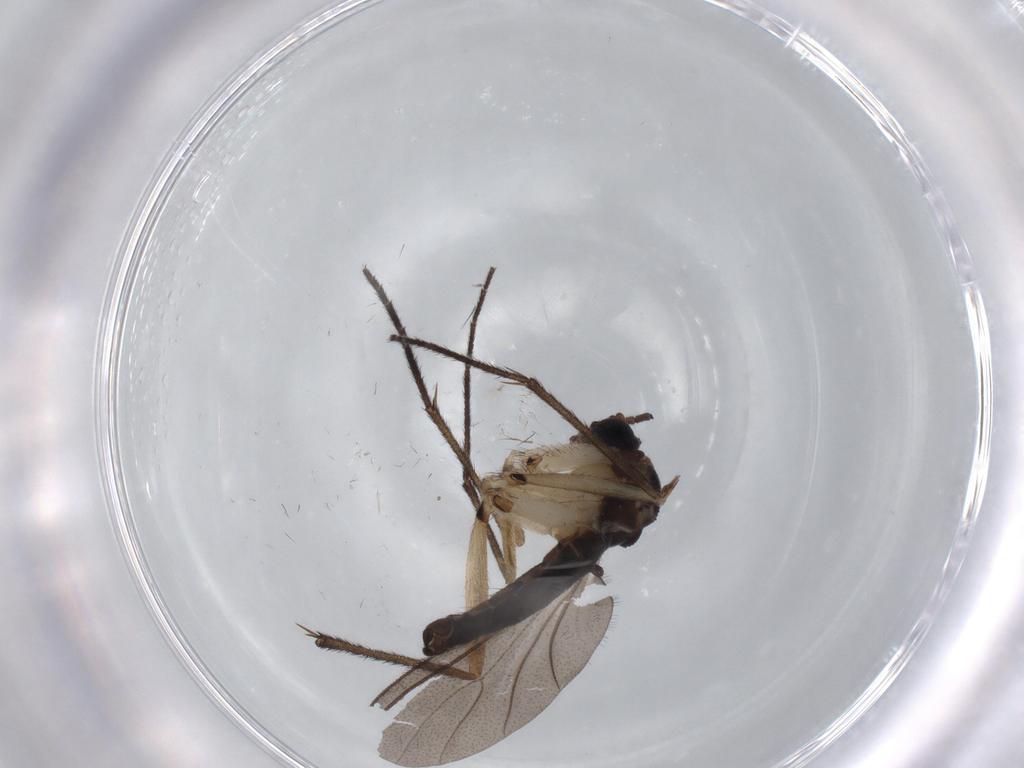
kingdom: Animalia
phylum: Arthropoda
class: Insecta
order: Diptera
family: Sciaridae
